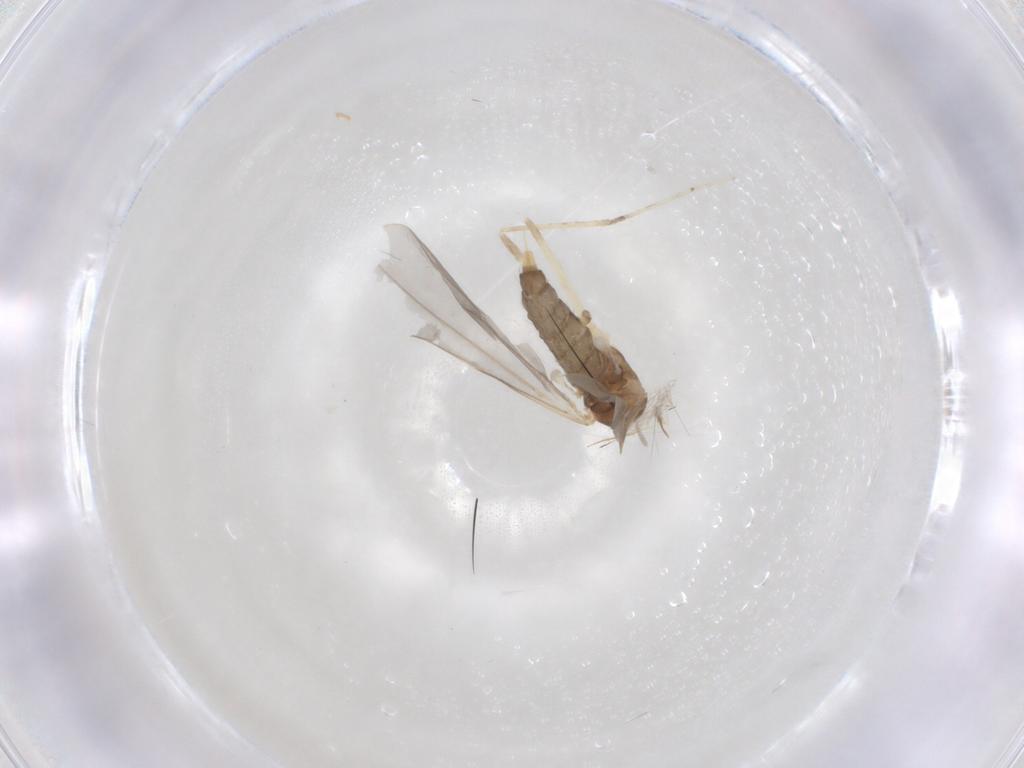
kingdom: Animalia
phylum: Arthropoda
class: Insecta
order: Diptera
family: Cecidomyiidae
